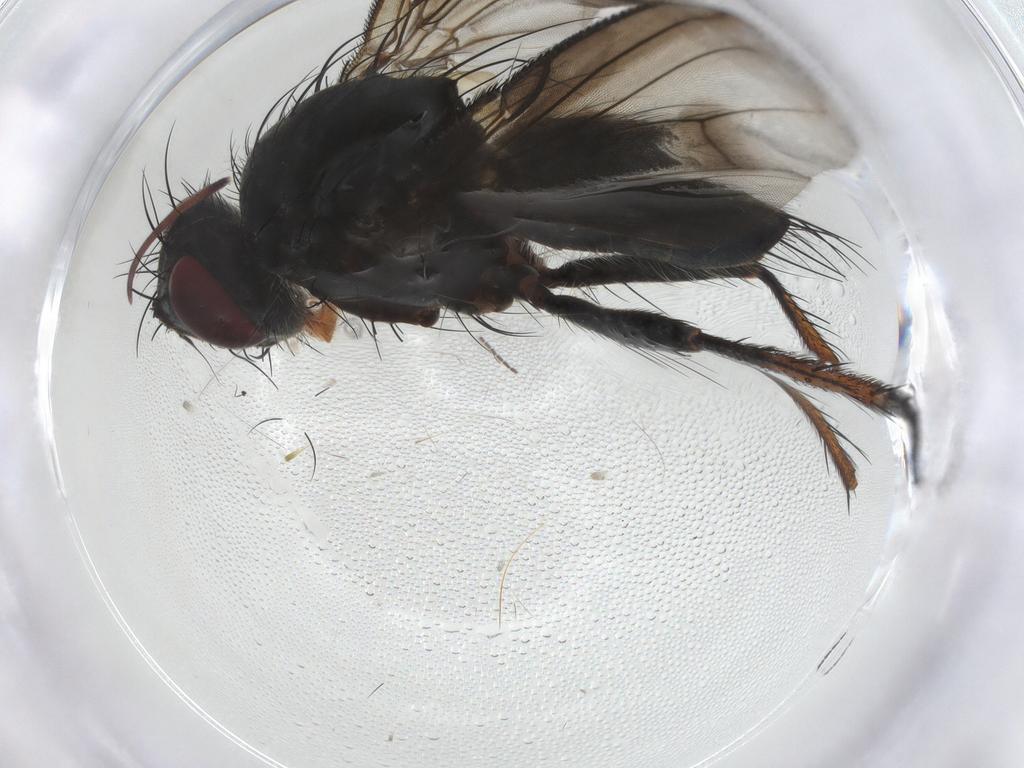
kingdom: Animalia
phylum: Arthropoda
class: Insecta
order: Diptera
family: Tachinidae
